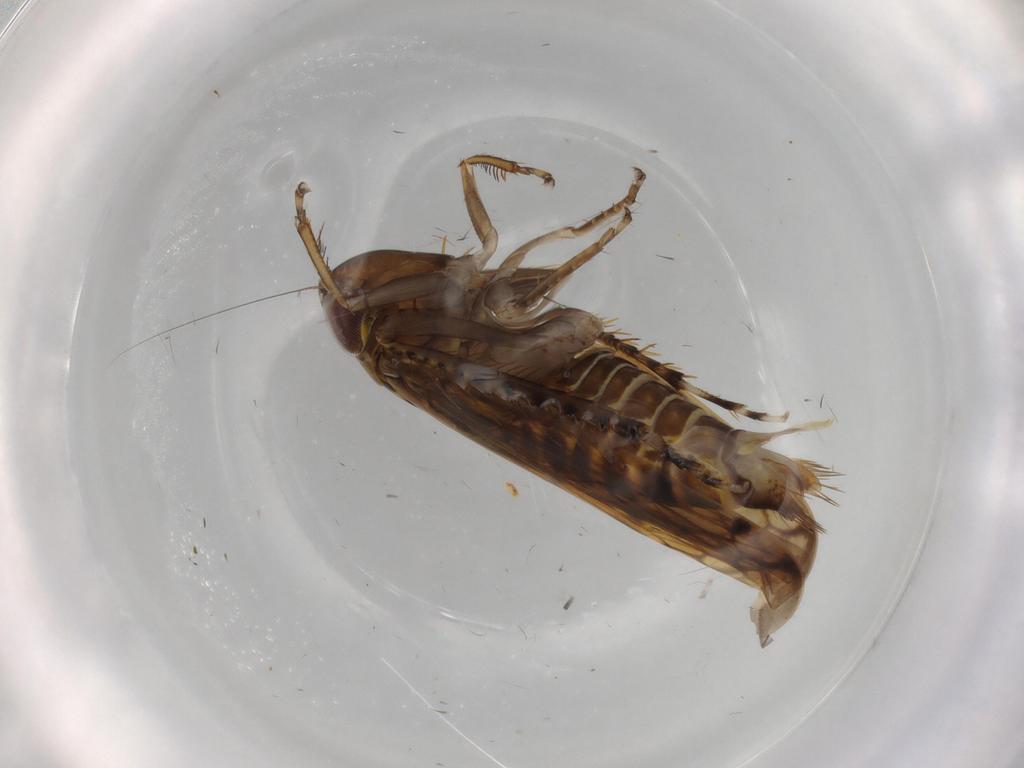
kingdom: Animalia
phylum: Arthropoda
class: Insecta
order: Hemiptera
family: Cicadellidae
